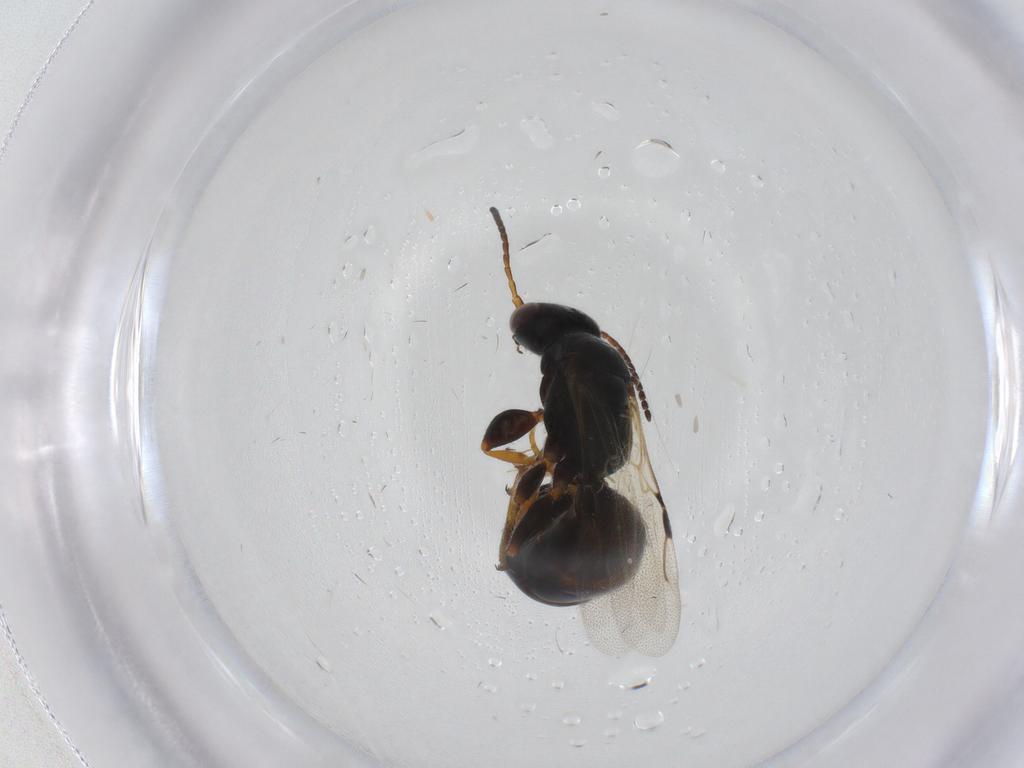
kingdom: Animalia
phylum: Arthropoda
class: Insecta
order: Hymenoptera
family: Bethylidae
